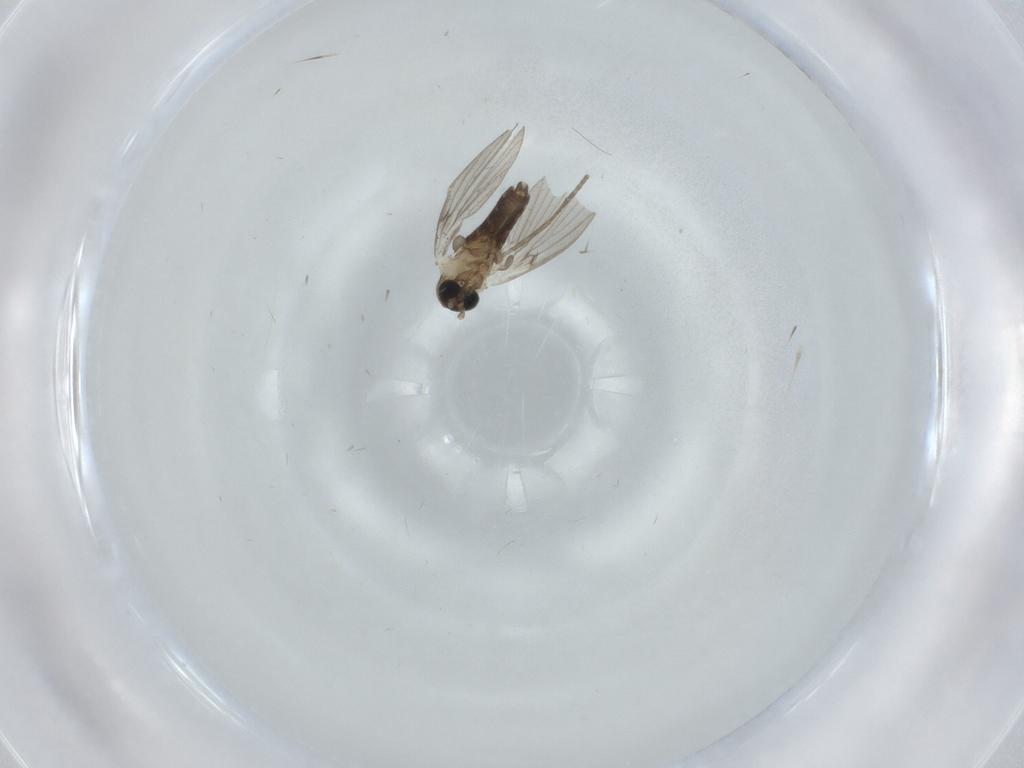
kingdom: Animalia
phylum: Arthropoda
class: Insecta
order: Diptera
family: Psychodidae
